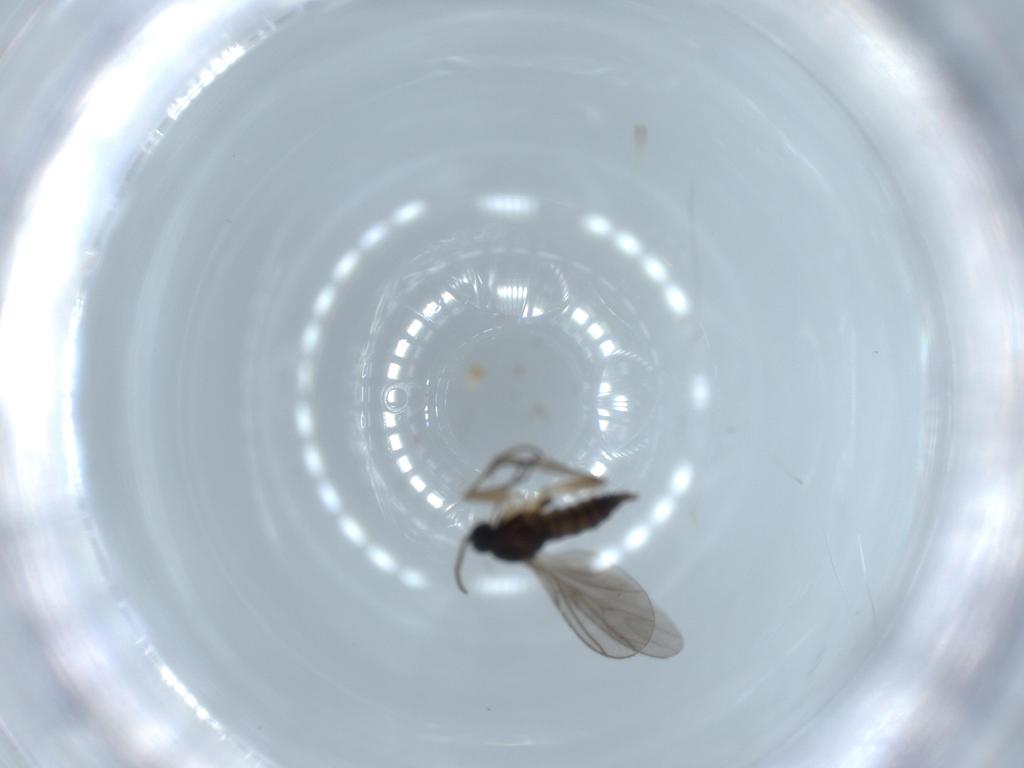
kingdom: Animalia
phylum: Arthropoda
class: Insecta
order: Diptera
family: Sciaridae
